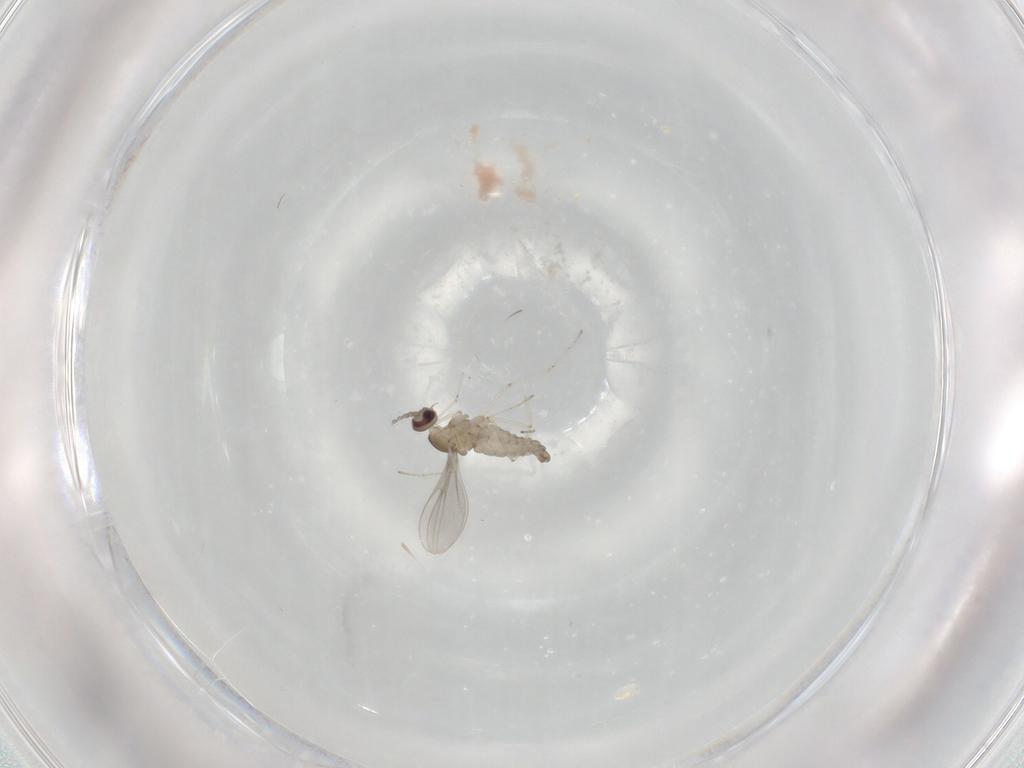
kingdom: Animalia
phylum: Arthropoda
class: Insecta
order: Diptera
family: Cecidomyiidae
